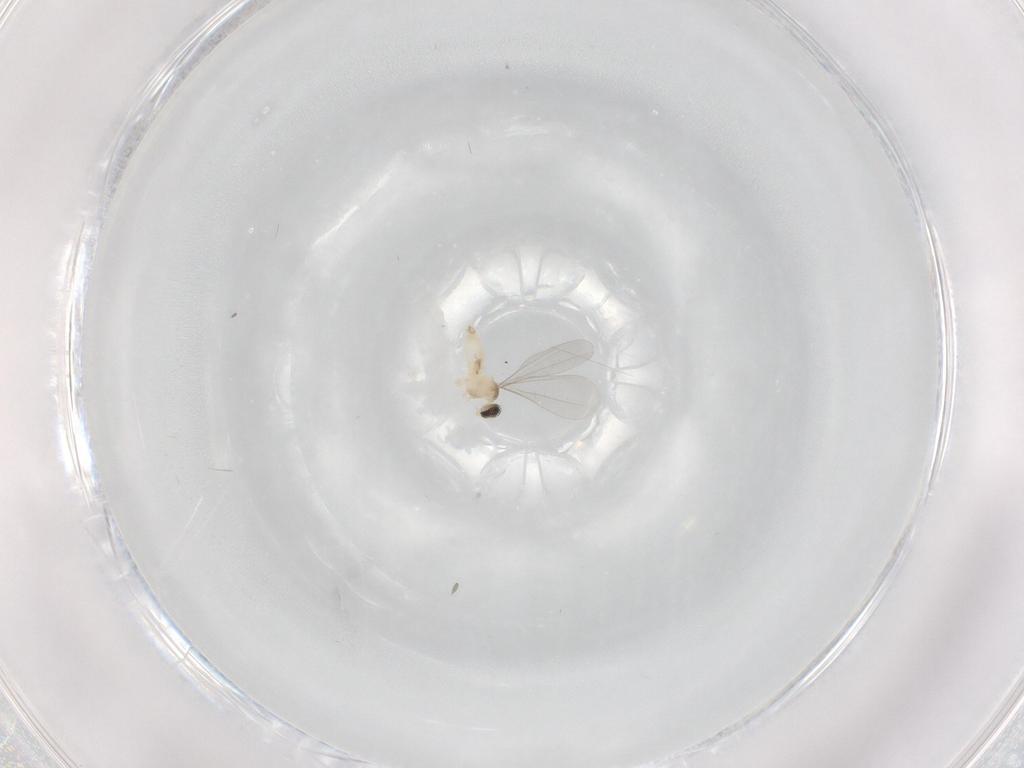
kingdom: Animalia
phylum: Arthropoda
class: Insecta
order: Diptera
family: Cecidomyiidae
